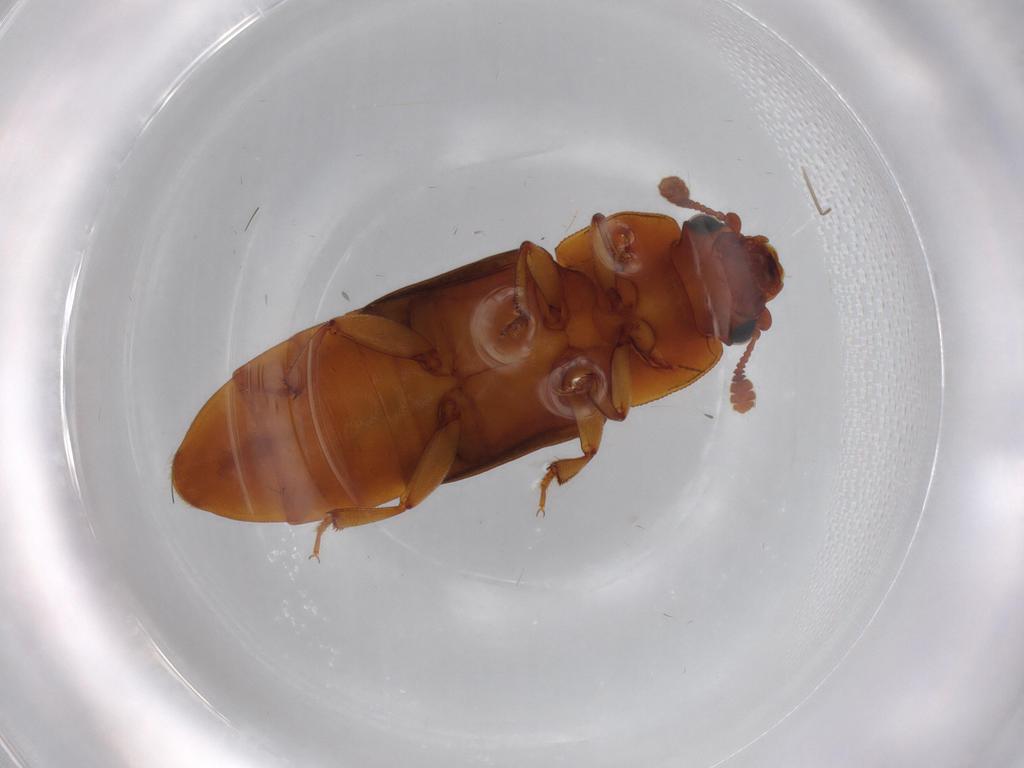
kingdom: Animalia
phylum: Arthropoda
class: Insecta
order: Coleoptera
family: Nitidulidae
